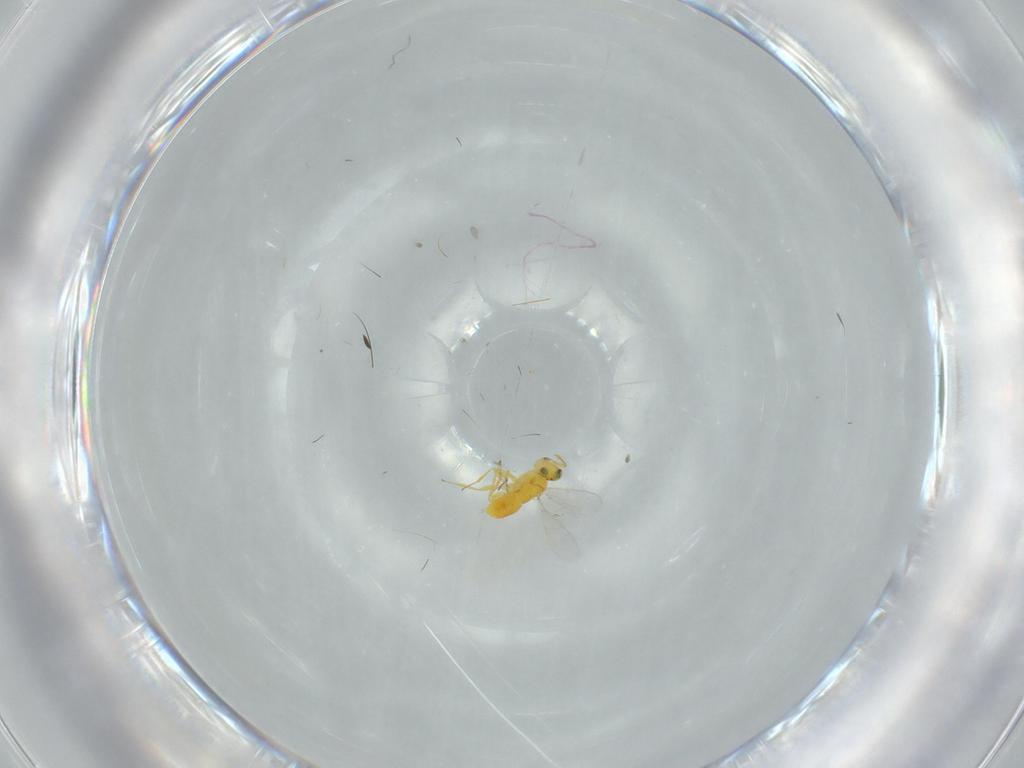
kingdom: Animalia
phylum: Arthropoda
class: Insecta
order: Hymenoptera
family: Aphelinidae
